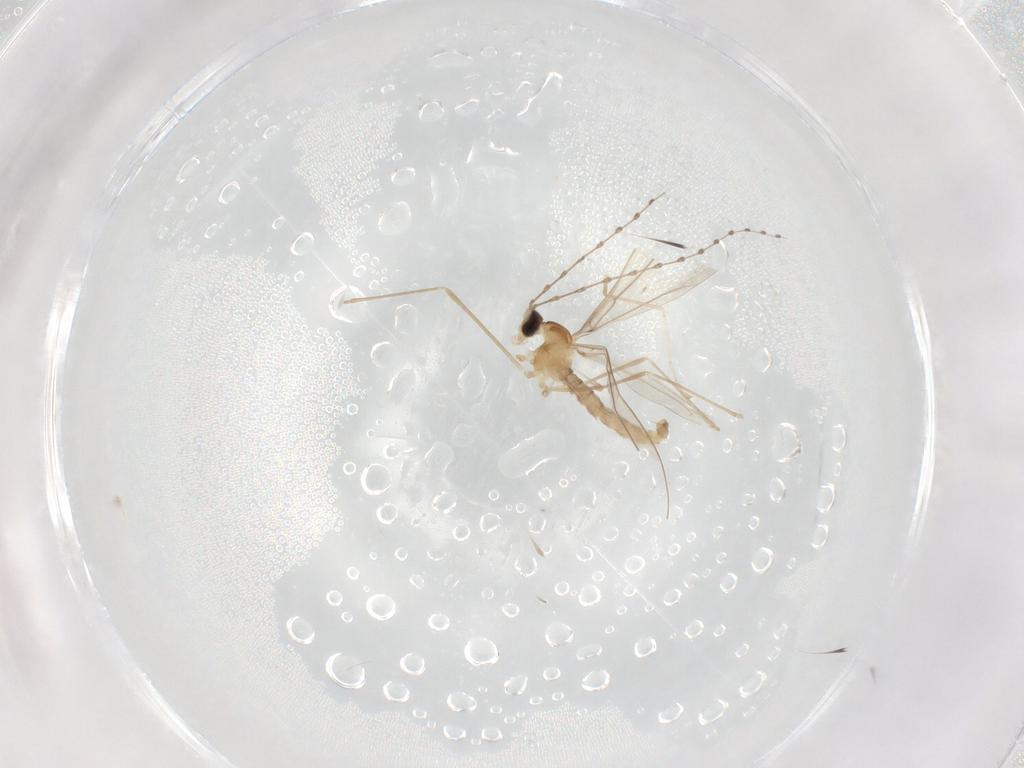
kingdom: Animalia
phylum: Arthropoda
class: Insecta
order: Diptera
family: Cecidomyiidae
